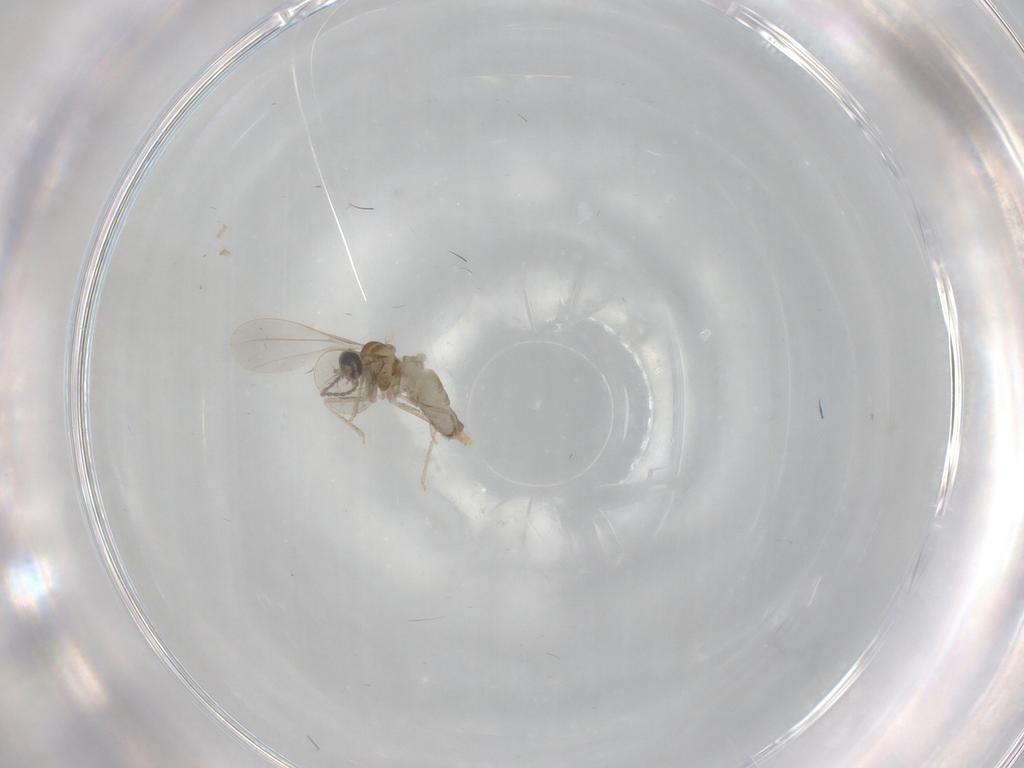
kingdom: Animalia
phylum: Arthropoda
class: Insecta
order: Diptera
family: Cecidomyiidae
